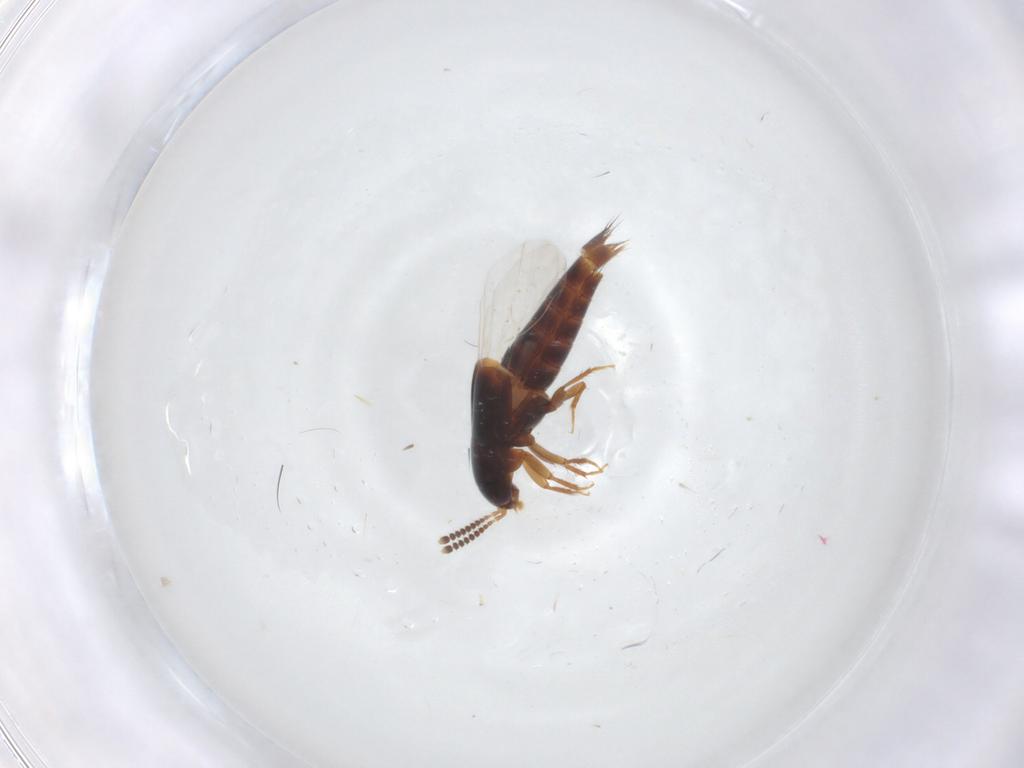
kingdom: Animalia
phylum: Arthropoda
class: Insecta
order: Coleoptera
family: Staphylinidae
